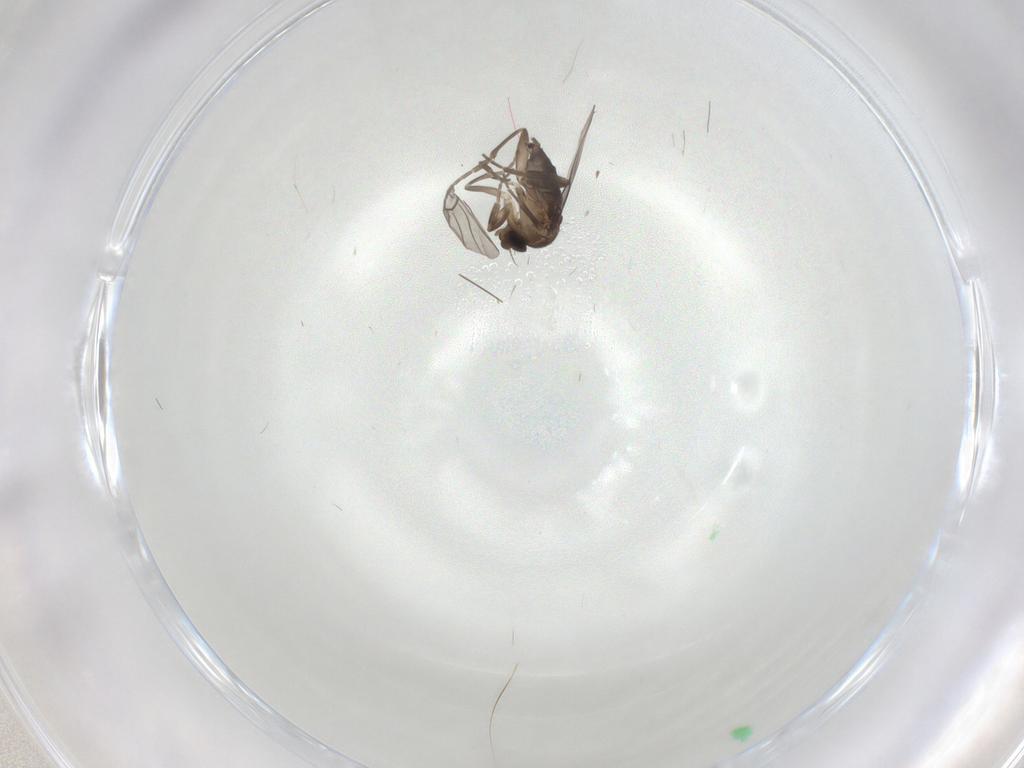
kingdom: Animalia
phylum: Arthropoda
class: Insecta
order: Diptera
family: Phoridae
